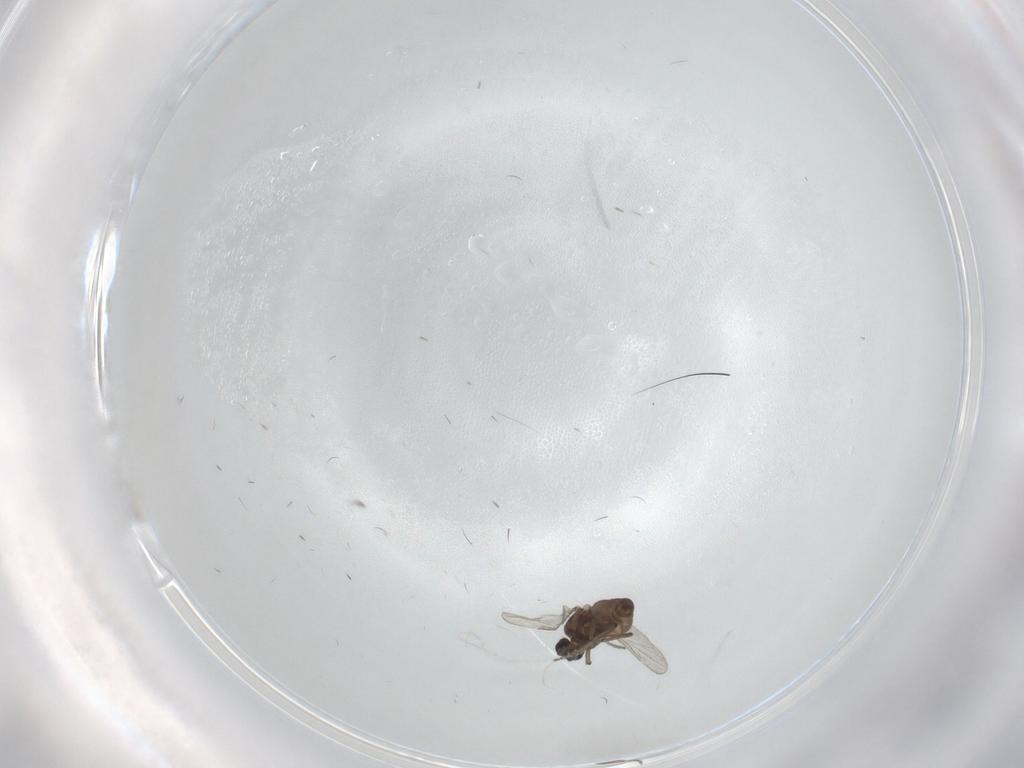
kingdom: Animalia
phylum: Arthropoda
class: Insecta
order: Diptera
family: Ceratopogonidae
